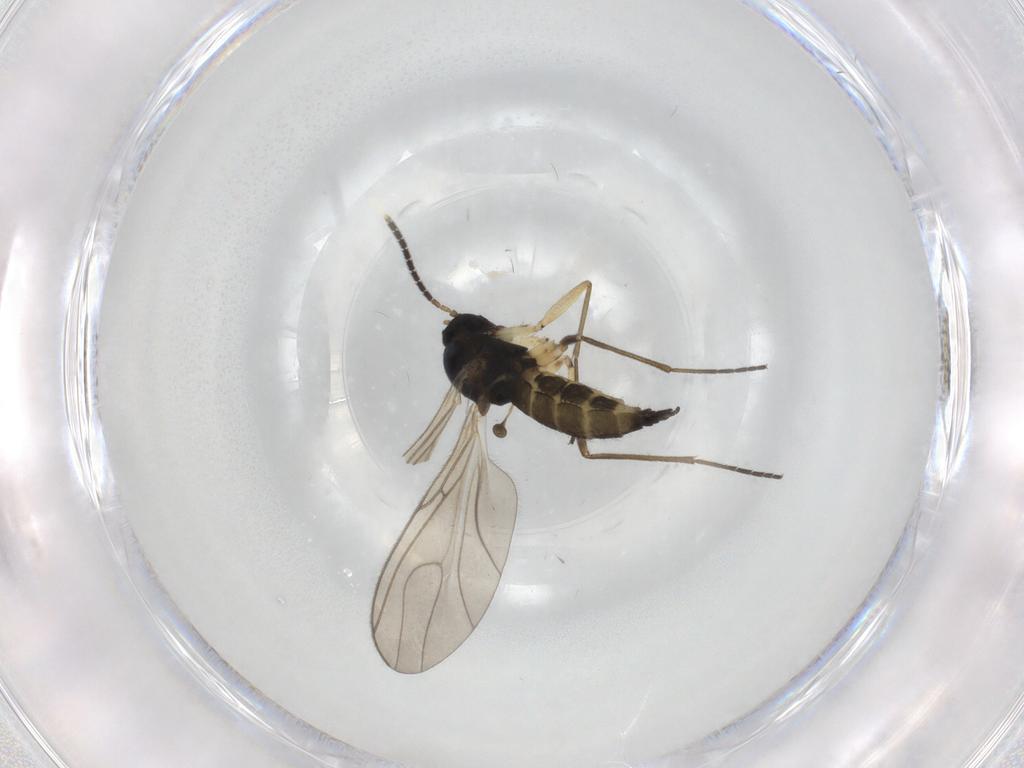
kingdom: Animalia
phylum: Arthropoda
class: Insecta
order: Diptera
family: Sciaridae
